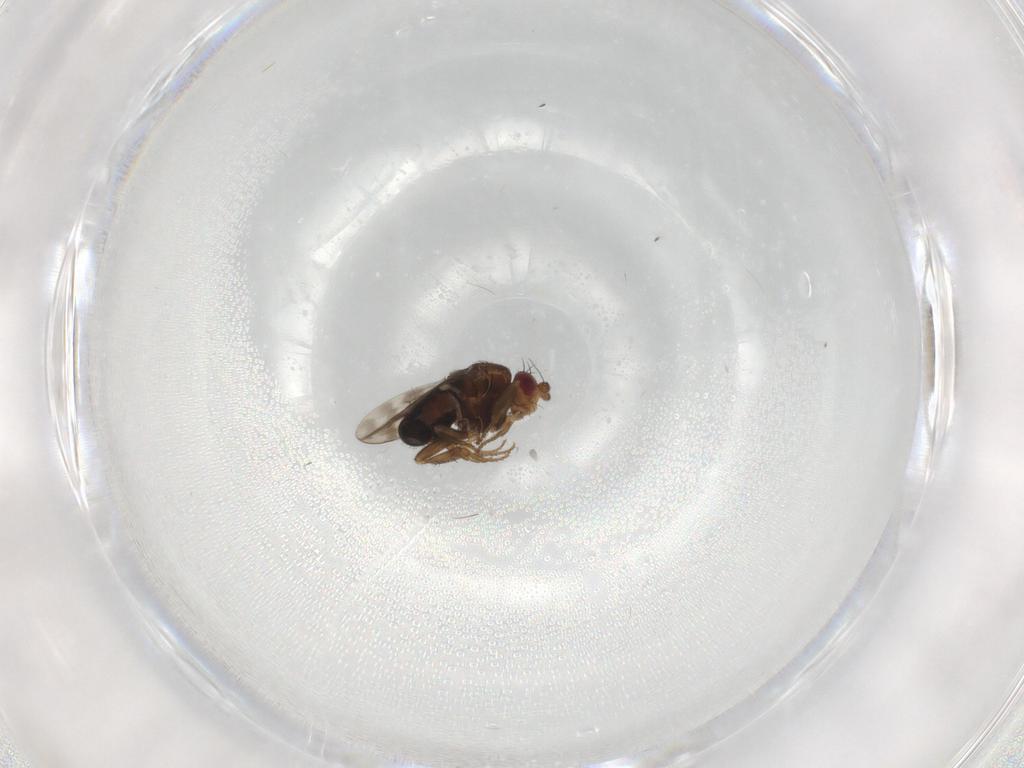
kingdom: Animalia
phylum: Arthropoda
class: Insecta
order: Diptera
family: Sphaeroceridae
